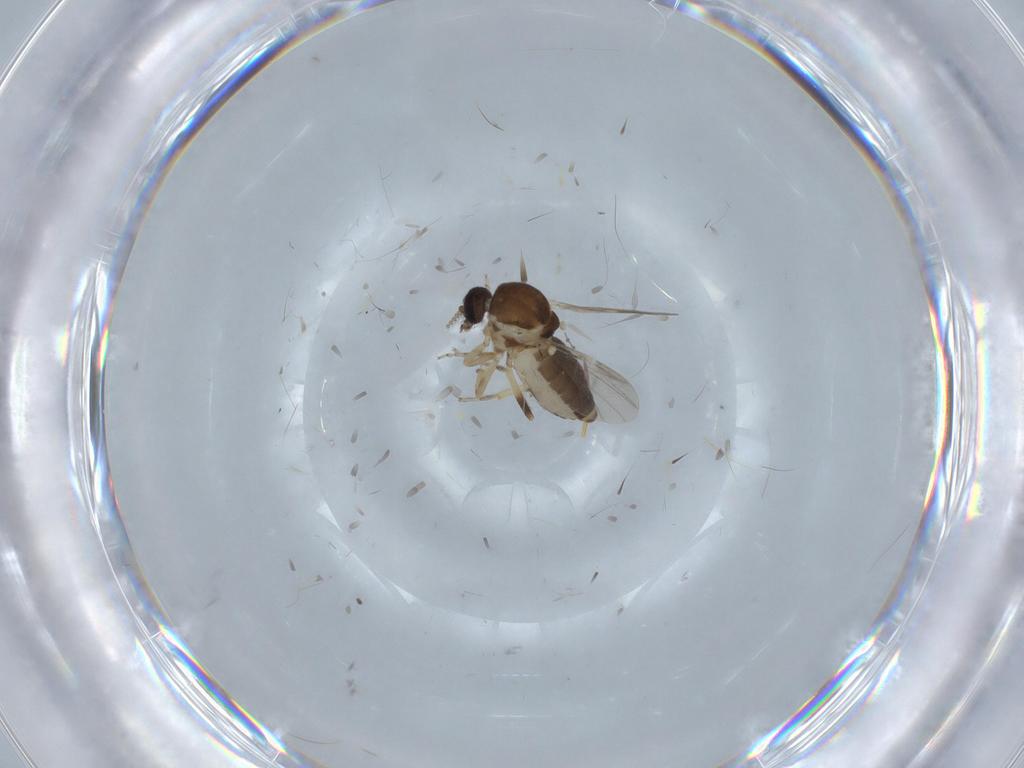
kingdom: Animalia
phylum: Arthropoda
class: Insecta
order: Diptera
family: Ceratopogonidae
